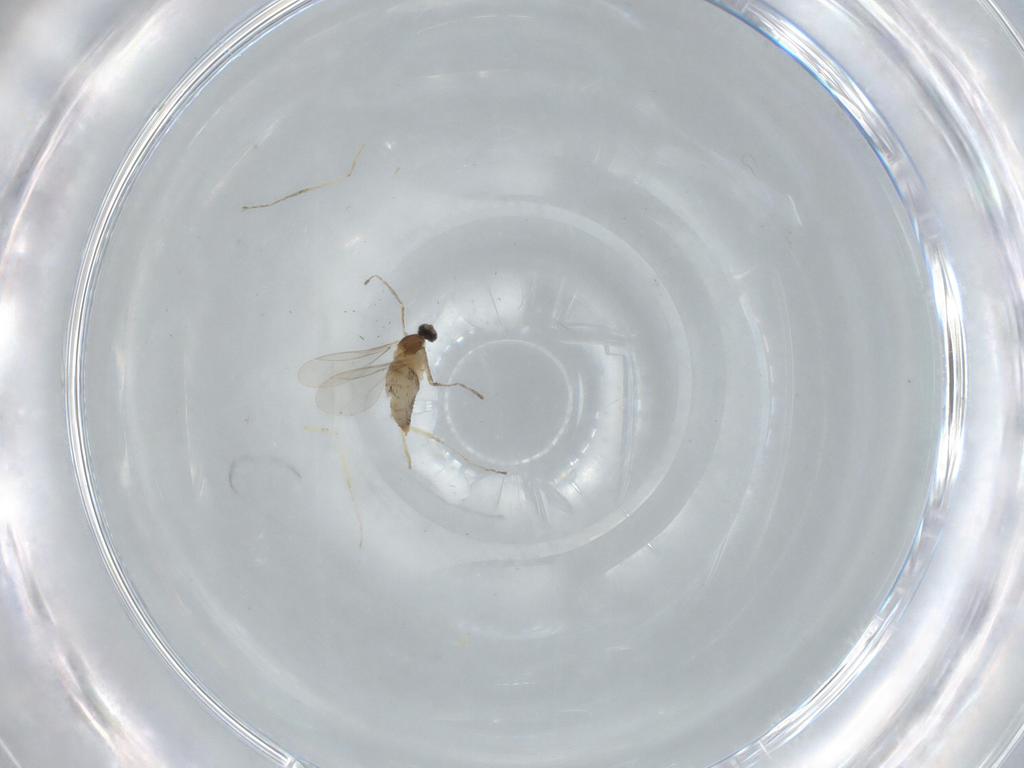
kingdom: Animalia
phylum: Arthropoda
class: Insecta
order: Diptera
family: Cecidomyiidae
